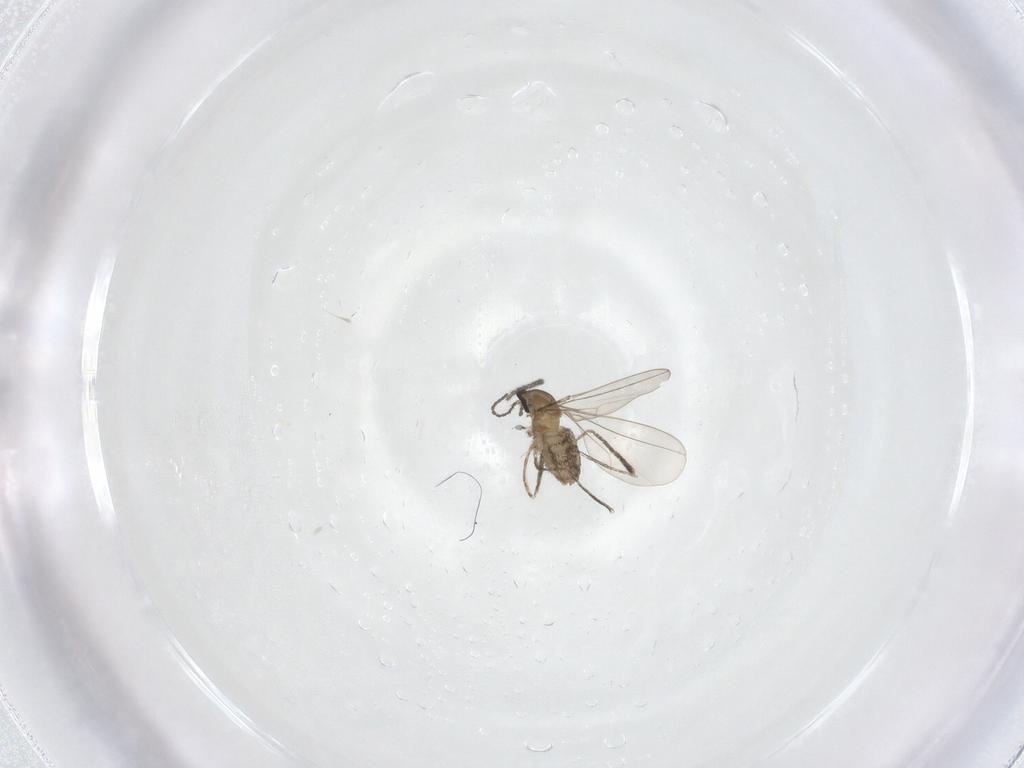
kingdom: Animalia
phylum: Arthropoda
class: Insecta
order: Diptera
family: Cecidomyiidae
